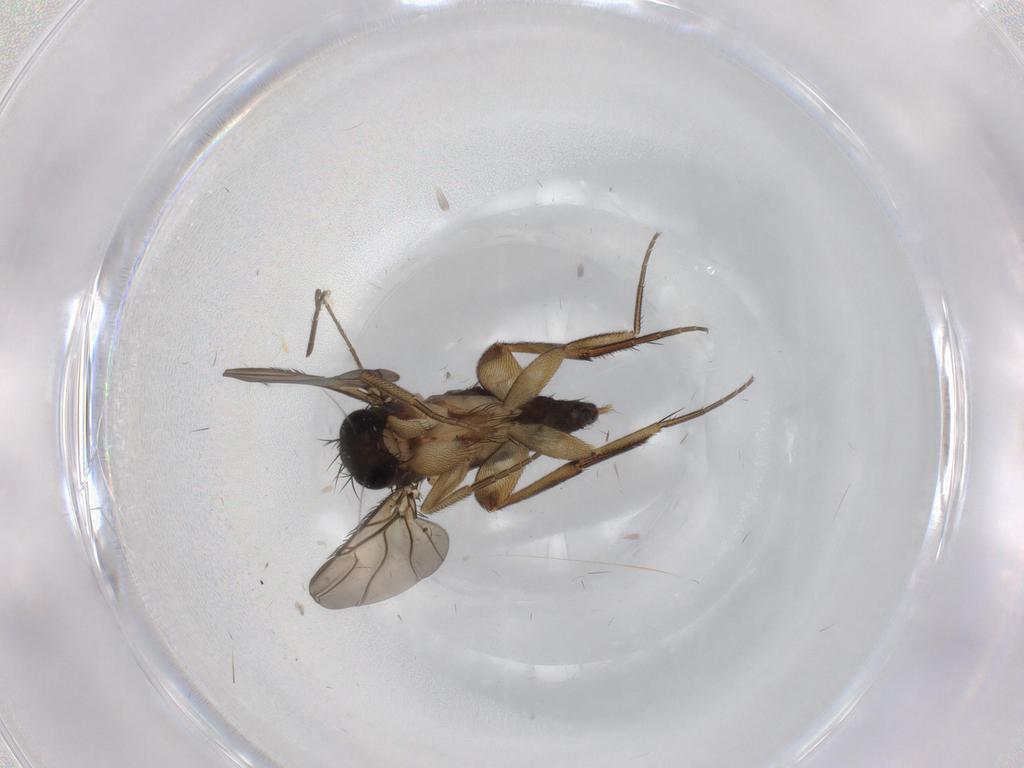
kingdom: Animalia
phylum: Arthropoda
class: Insecta
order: Diptera
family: Phoridae
